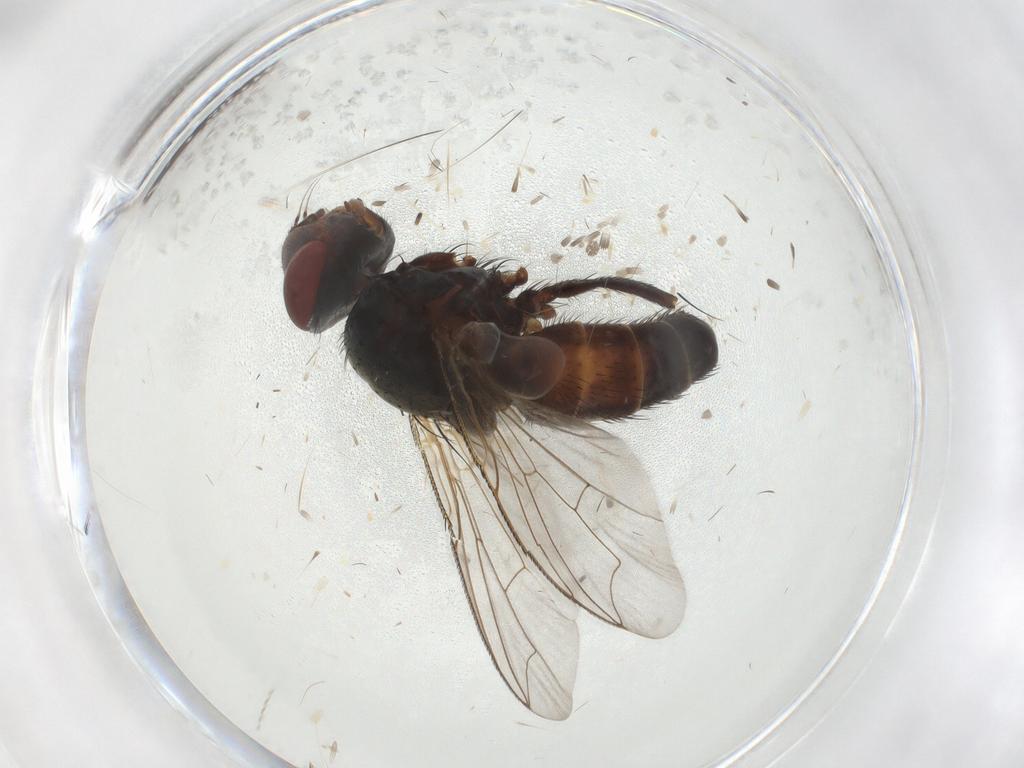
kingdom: Animalia
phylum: Arthropoda
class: Insecta
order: Diptera
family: Sarcophagidae
